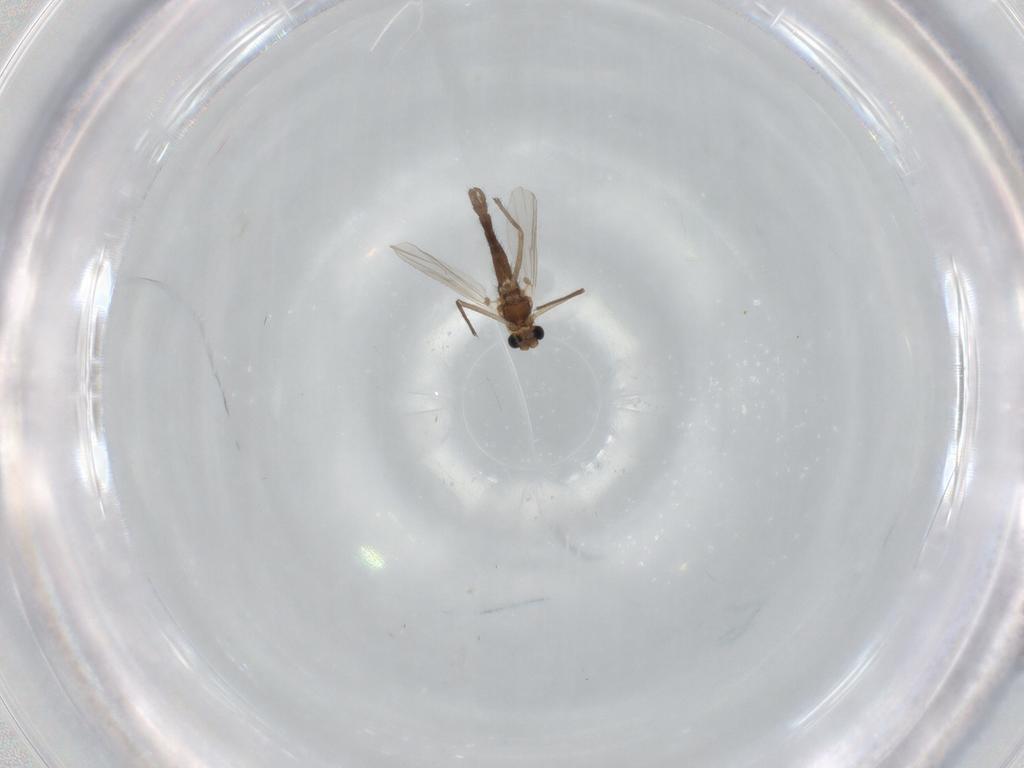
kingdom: Animalia
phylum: Arthropoda
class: Insecta
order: Diptera
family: Chironomidae
